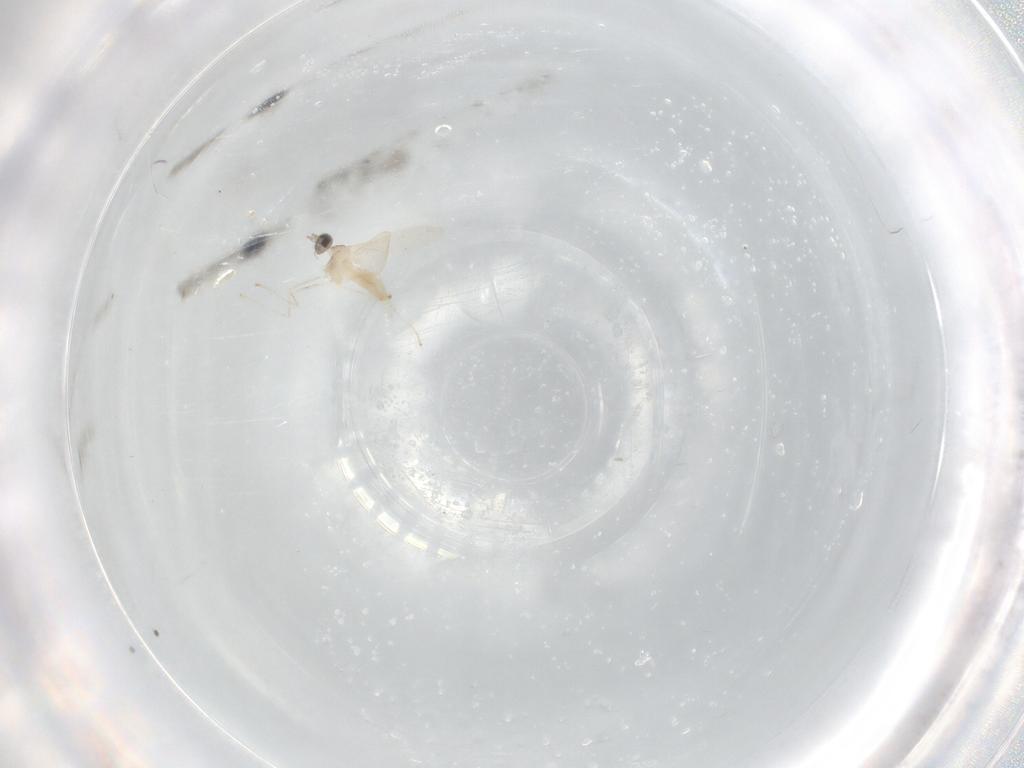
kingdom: Animalia
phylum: Arthropoda
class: Insecta
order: Diptera
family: Cecidomyiidae
